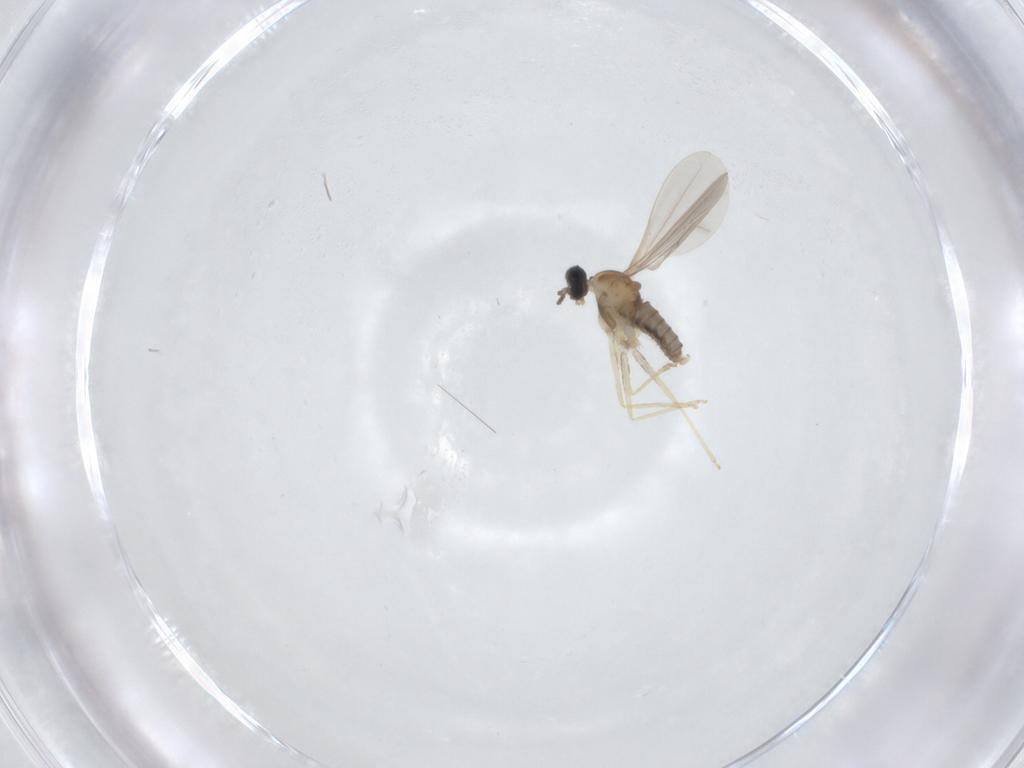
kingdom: Animalia
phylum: Arthropoda
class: Insecta
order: Diptera
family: Cecidomyiidae
